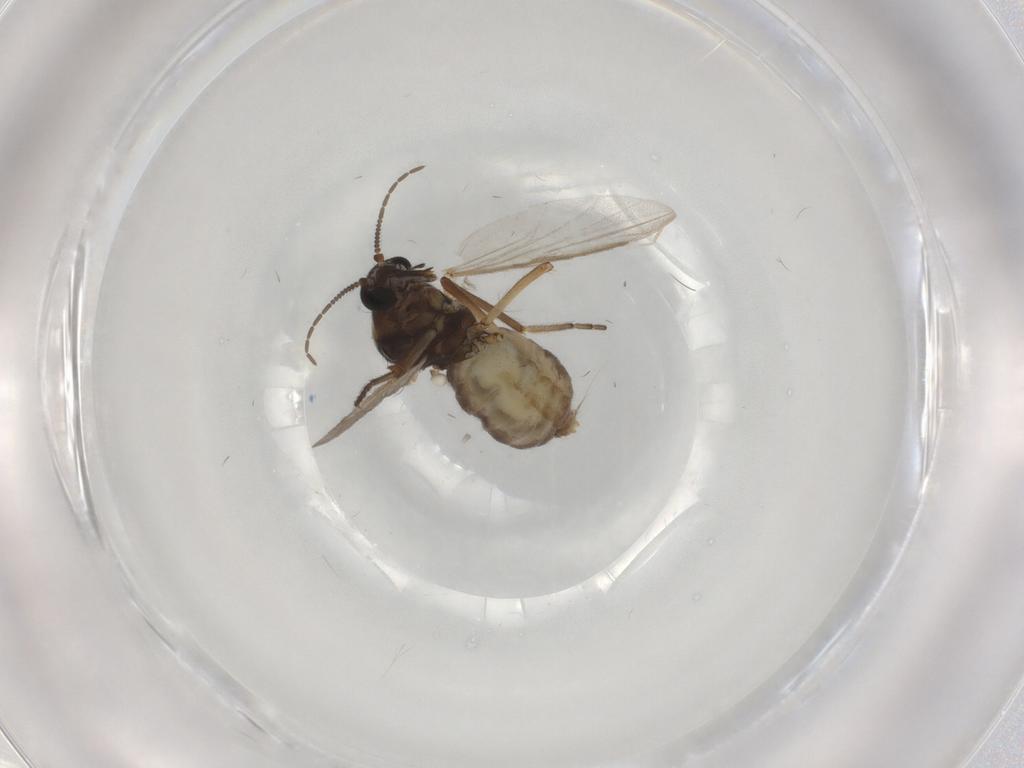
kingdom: Animalia
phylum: Arthropoda
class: Insecta
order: Diptera
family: Ceratopogonidae
